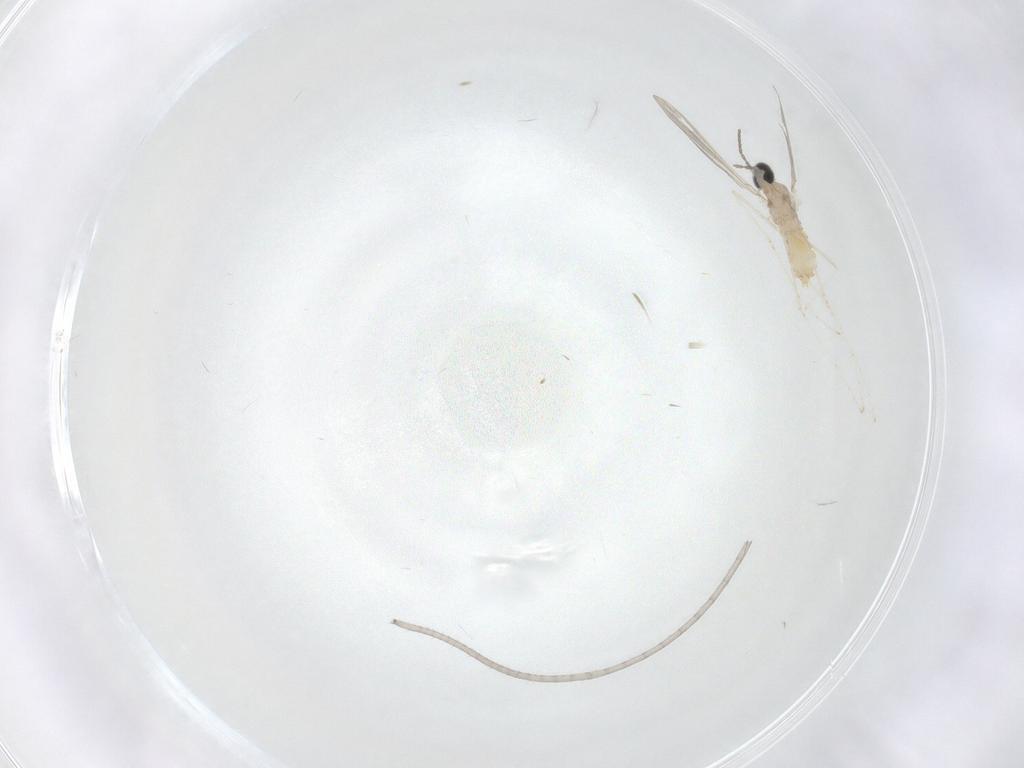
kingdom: Animalia
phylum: Arthropoda
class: Insecta
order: Diptera
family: Cecidomyiidae
